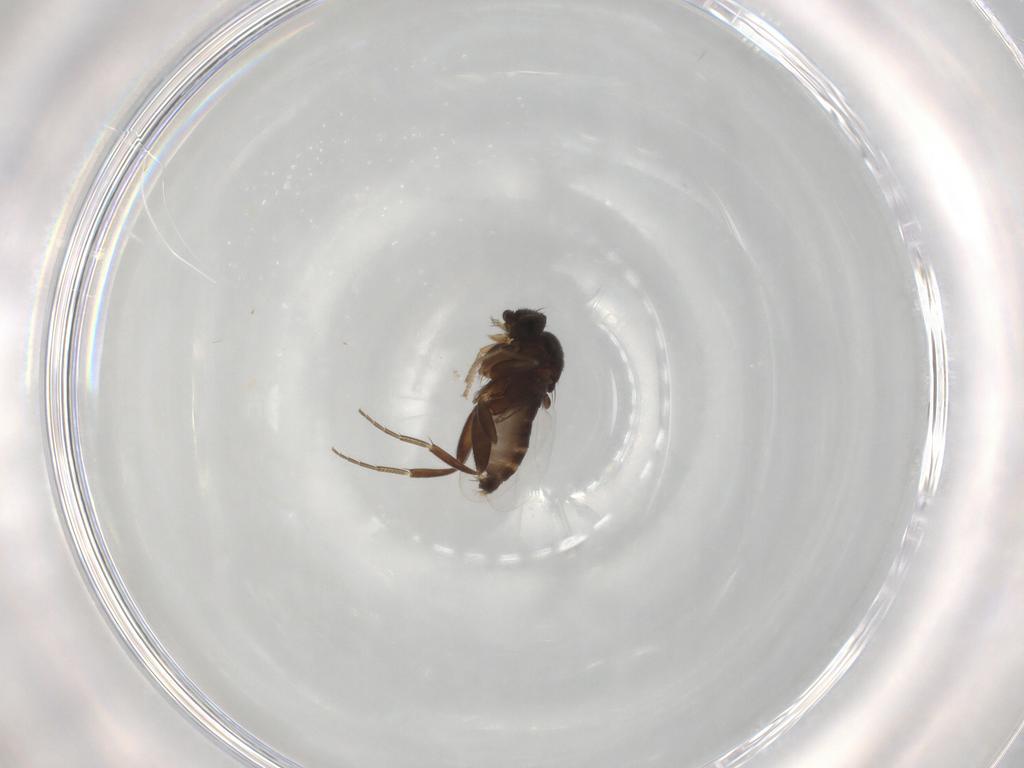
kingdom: Animalia
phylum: Arthropoda
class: Insecta
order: Diptera
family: Phoridae
